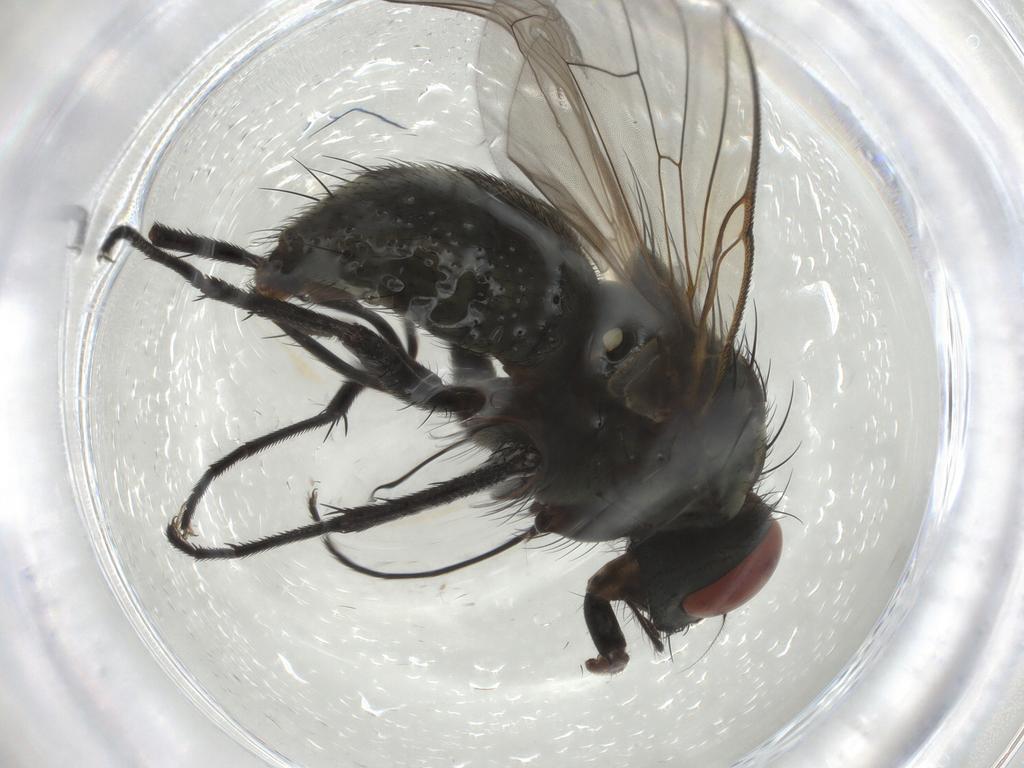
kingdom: Animalia
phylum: Arthropoda
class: Insecta
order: Diptera
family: Muscidae
